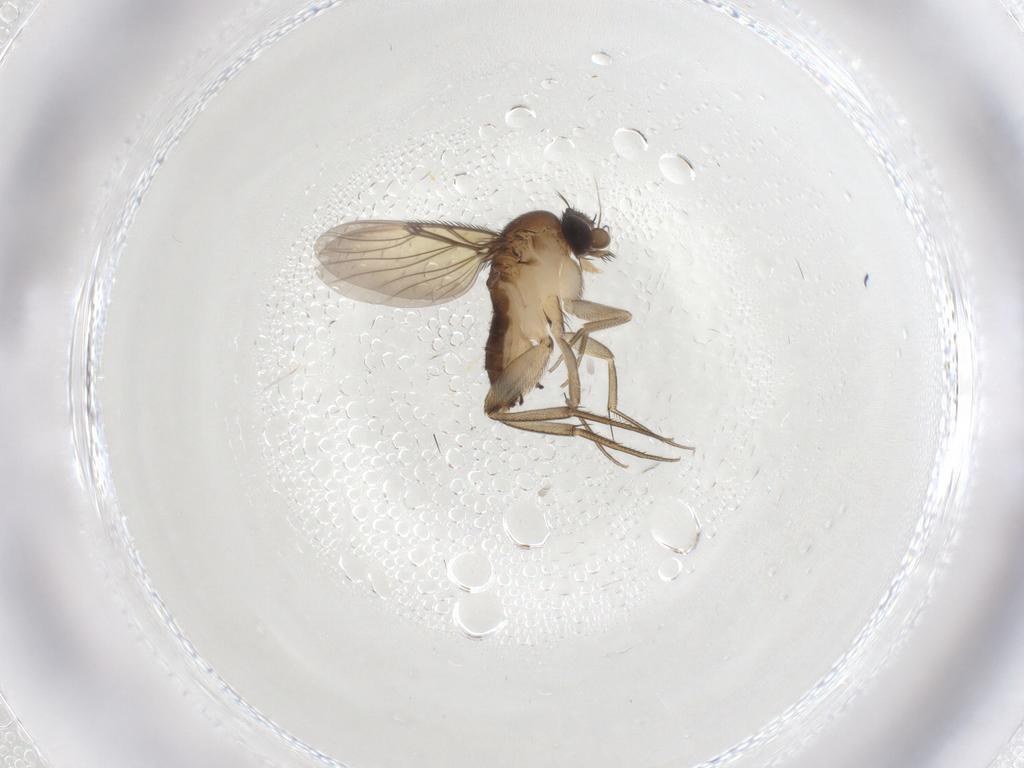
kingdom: Animalia
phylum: Arthropoda
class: Insecta
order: Diptera
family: Phoridae
